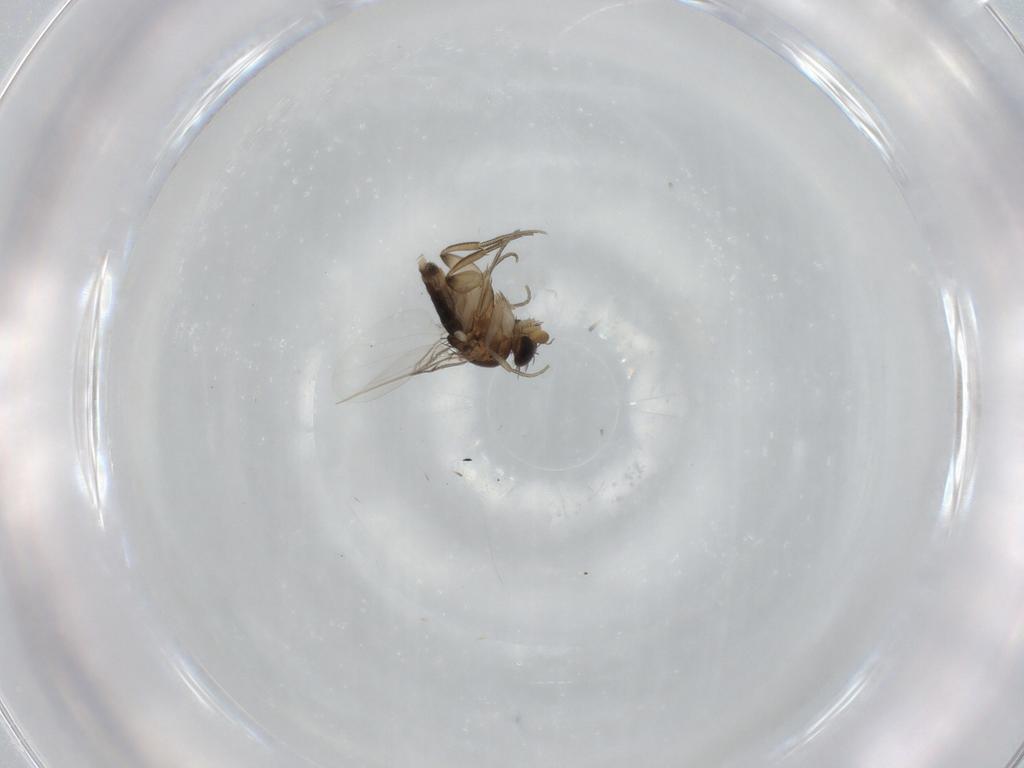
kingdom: Animalia
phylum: Arthropoda
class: Insecta
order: Diptera
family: Phoridae
